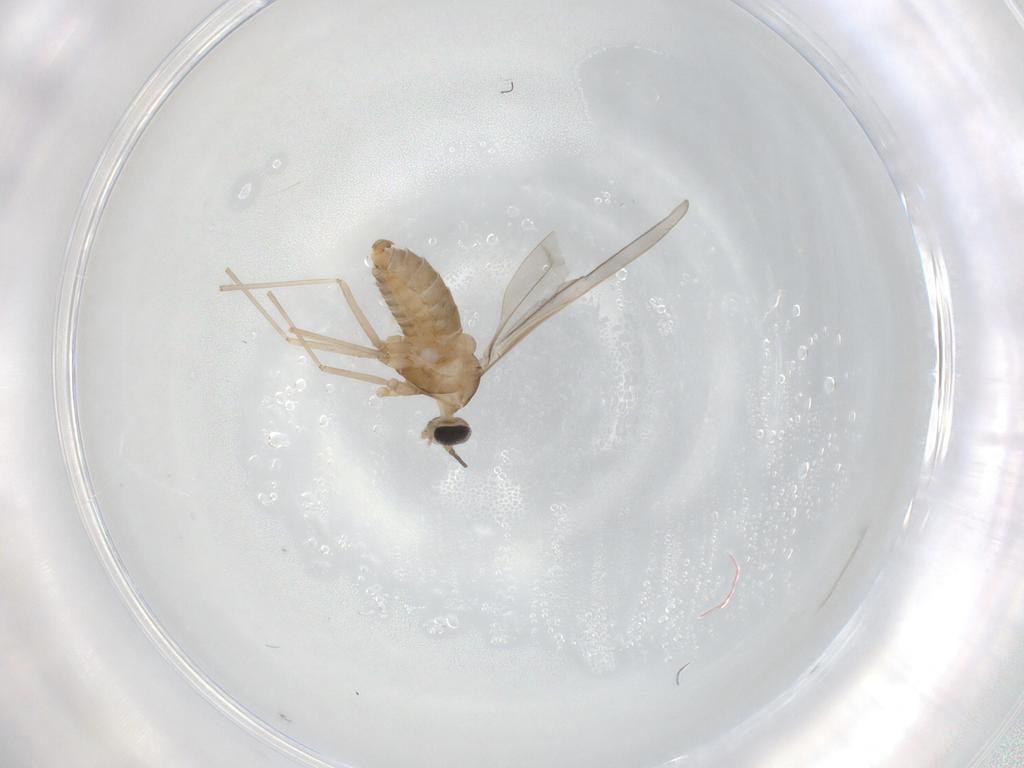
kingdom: Animalia
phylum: Arthropoda
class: Insecta
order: Diptera
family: Cecidomyiidae
